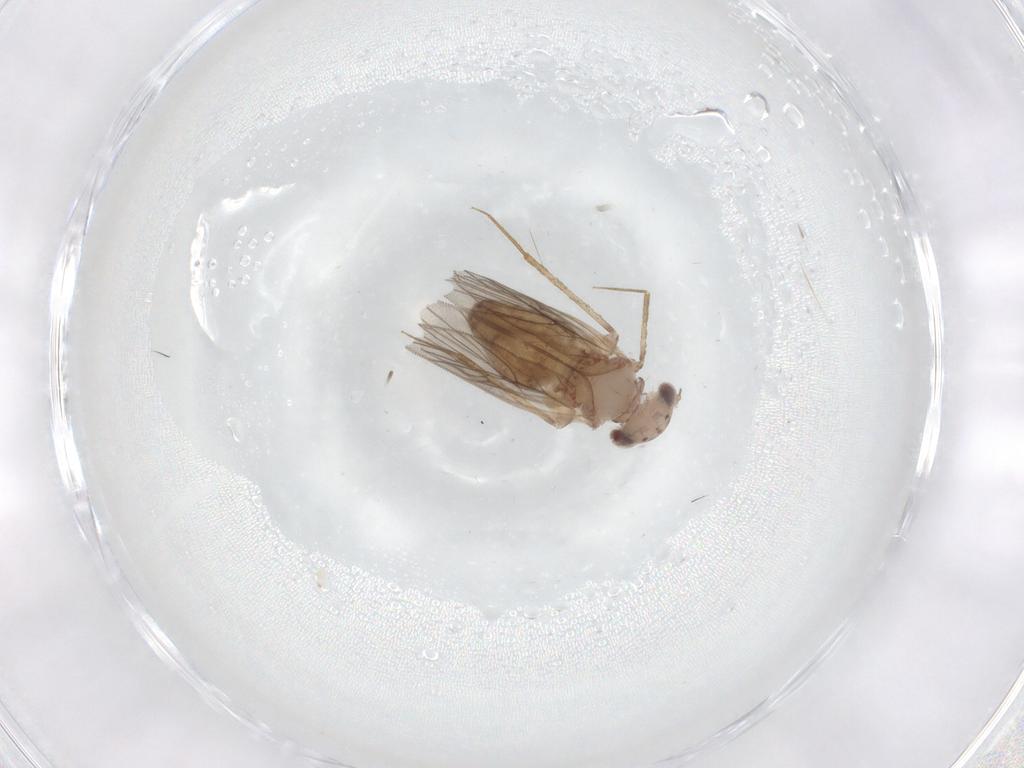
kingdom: Animalia
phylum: Arthropoda
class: Insecta
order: Psocodea
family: Lepidopsocidae
